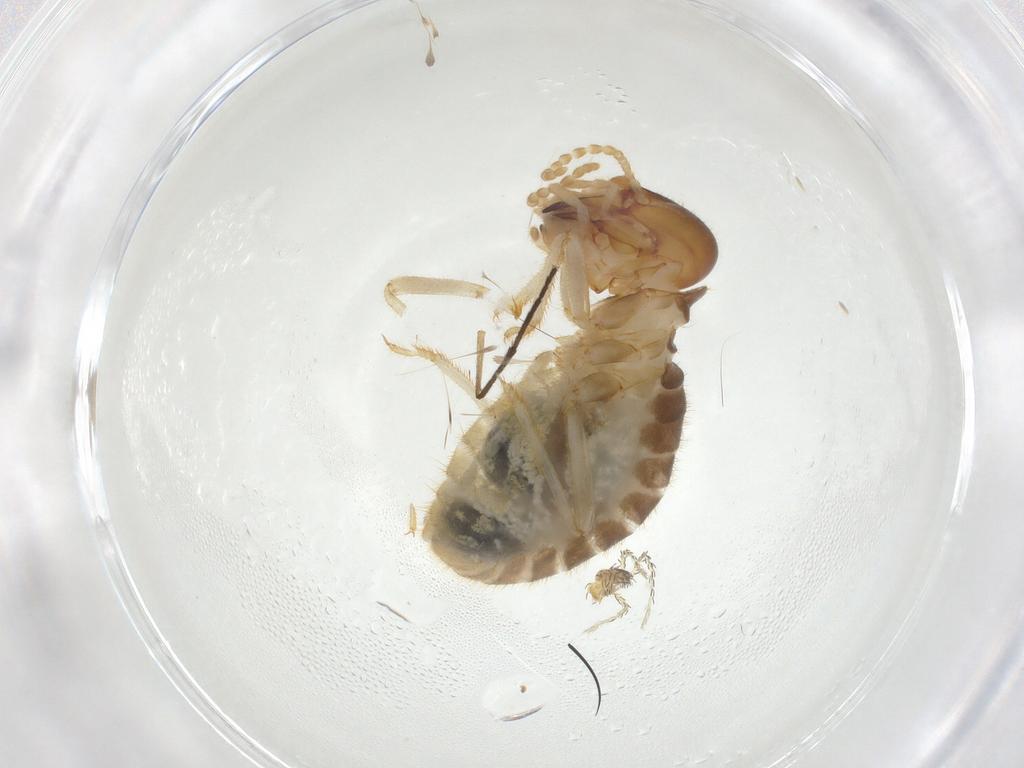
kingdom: Animalia
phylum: Arthropoda
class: Insecta
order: Blattodea
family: Termitidae
